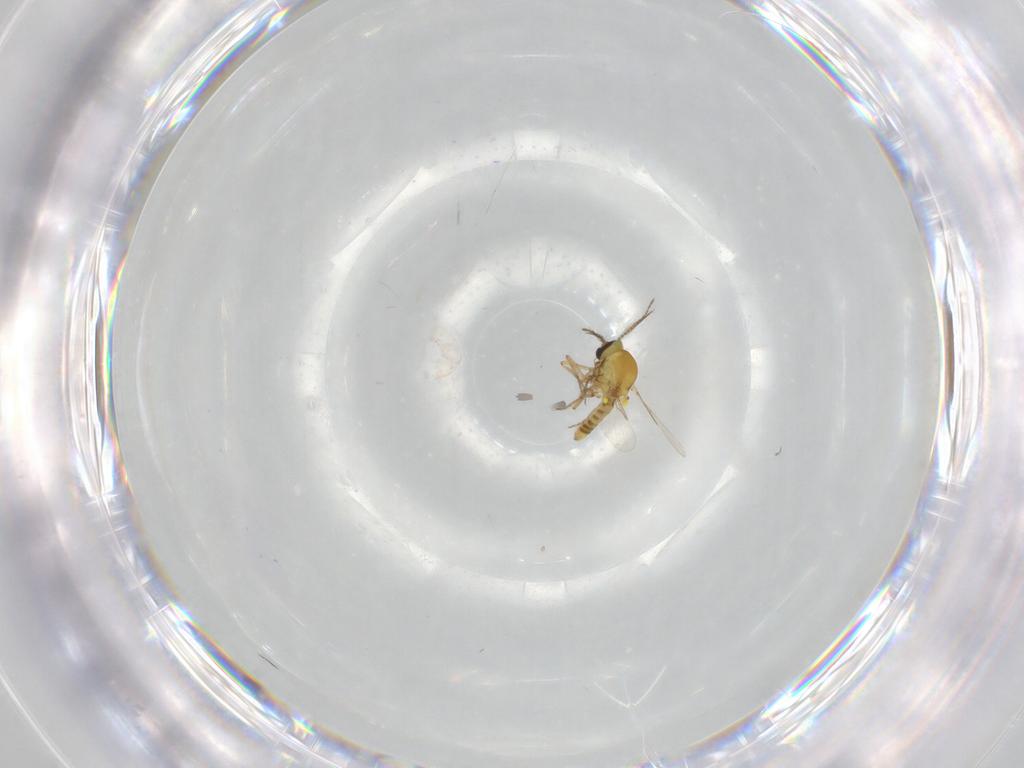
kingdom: Animalia
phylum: Arthropoda
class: Insecta
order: Diptera
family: Ceratopogonidae
